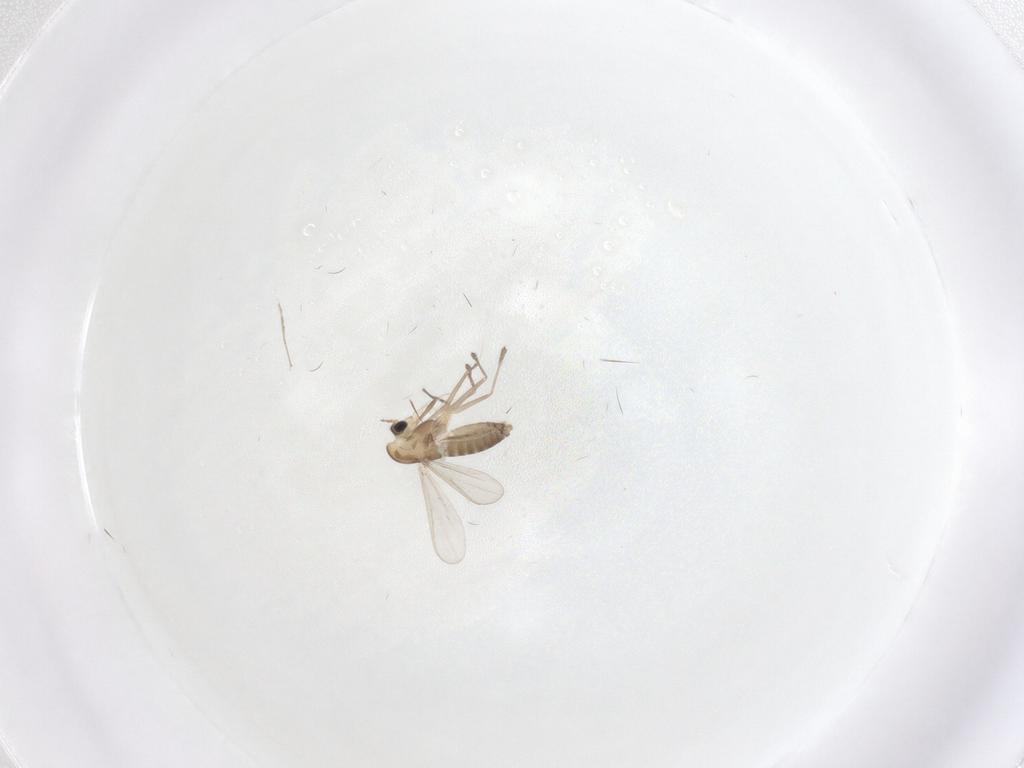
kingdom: Animalia
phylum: Arthropoda
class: Insecta
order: Diptera
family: Chironomidae
